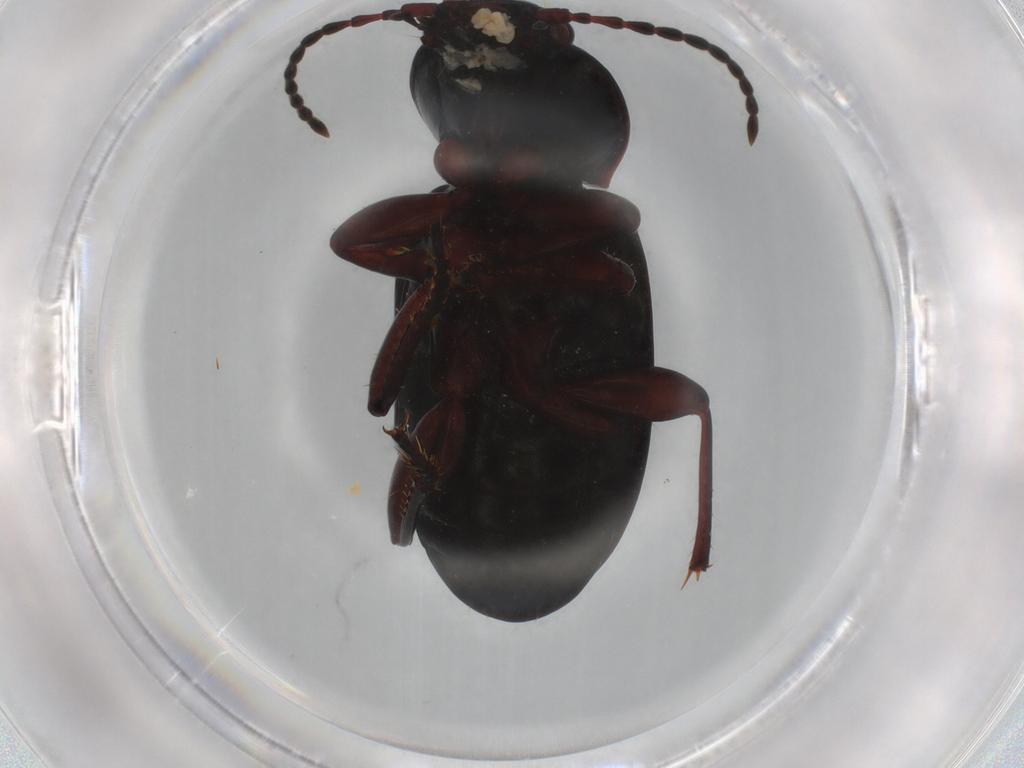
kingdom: Animalia
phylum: Arthropoda
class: Insecta
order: Coleoptera
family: Carabidae
